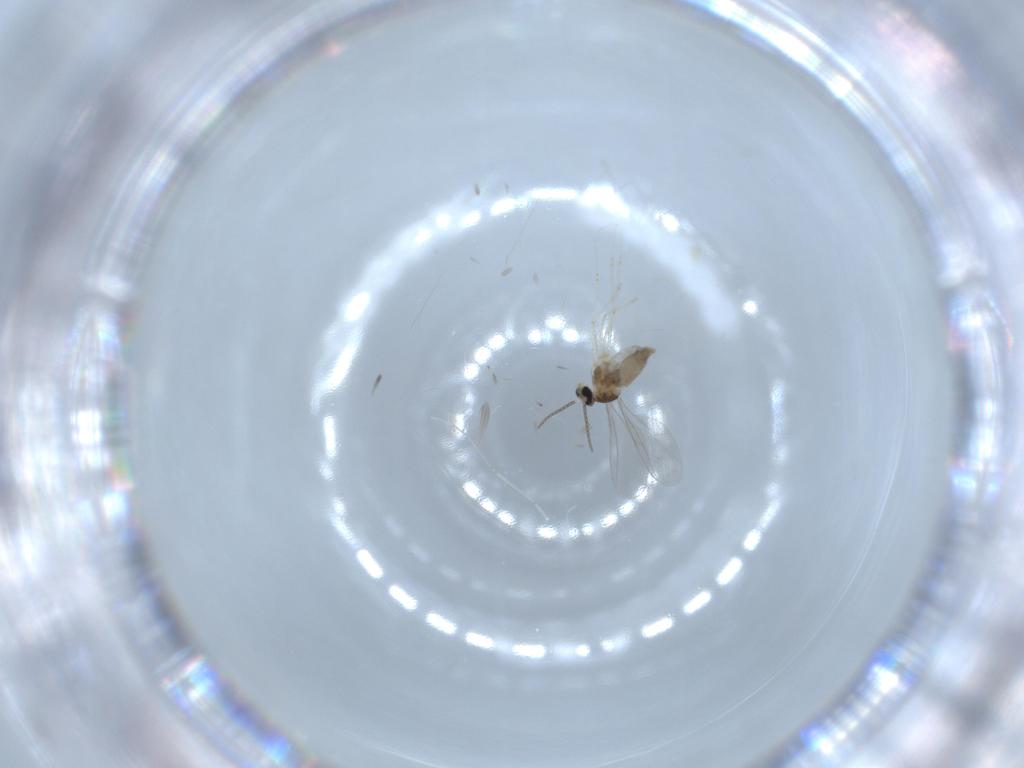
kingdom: Animalia
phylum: Arthropoda
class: Insecta
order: Diptera
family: Cecidomyiidae
